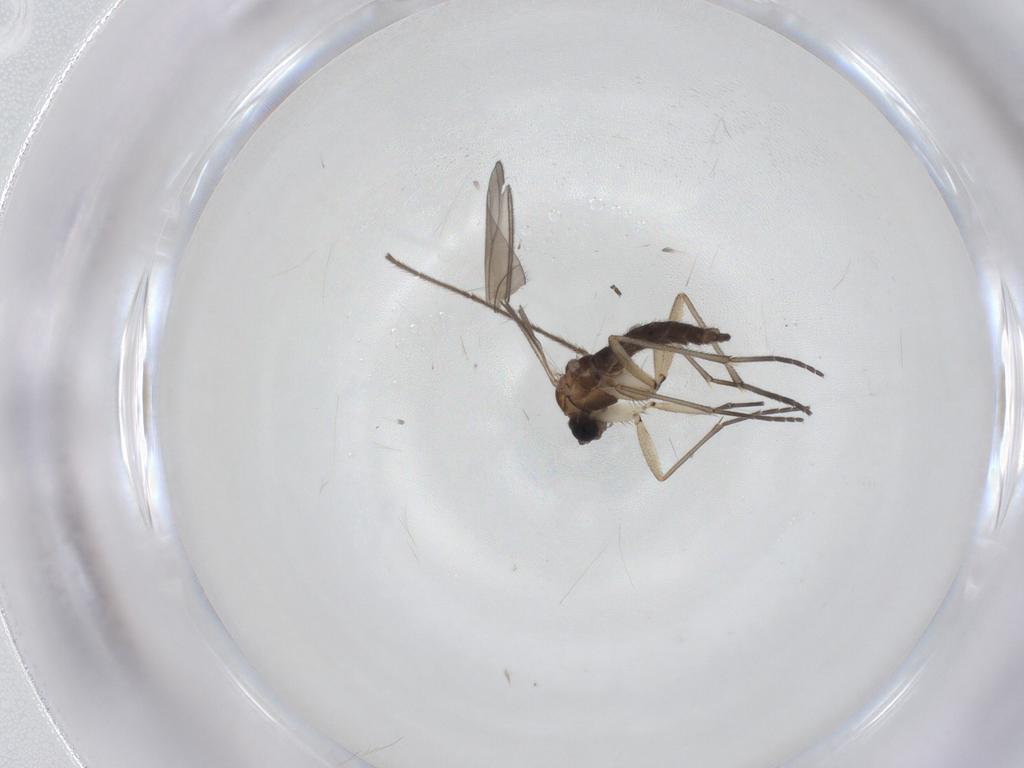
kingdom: Animalia
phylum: Arthropoda
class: Insecta
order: Diptera
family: Sciaridae
